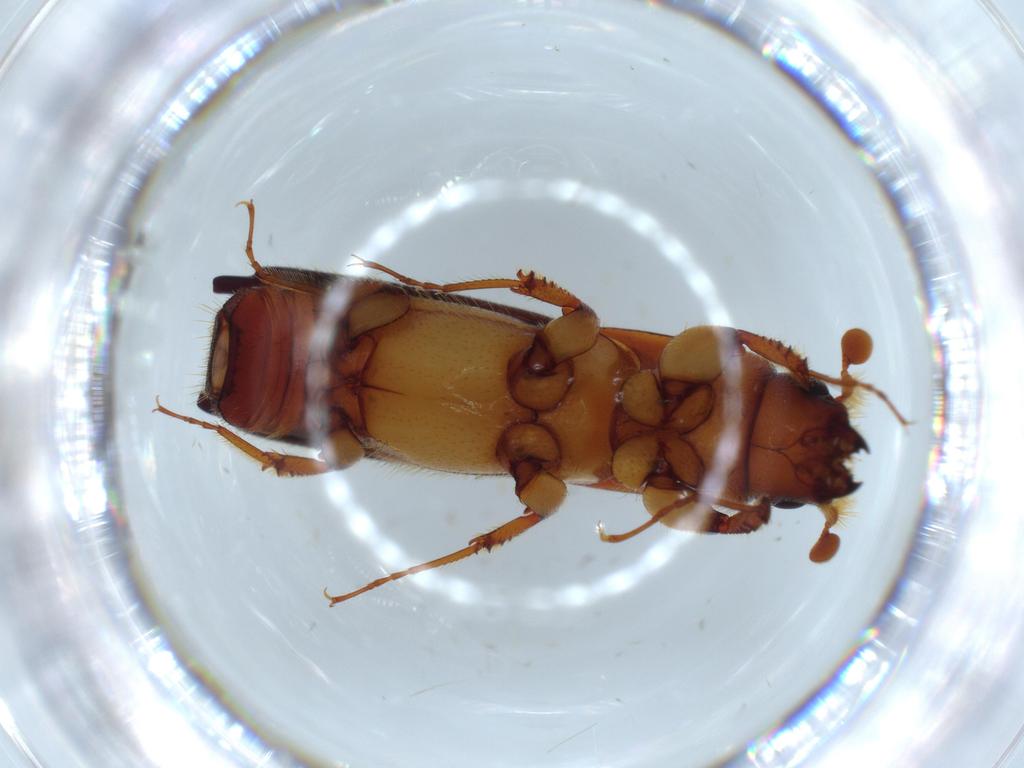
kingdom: Animalia
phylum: Arthropoda
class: Insecta
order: Coleoptera
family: Curculionidae
